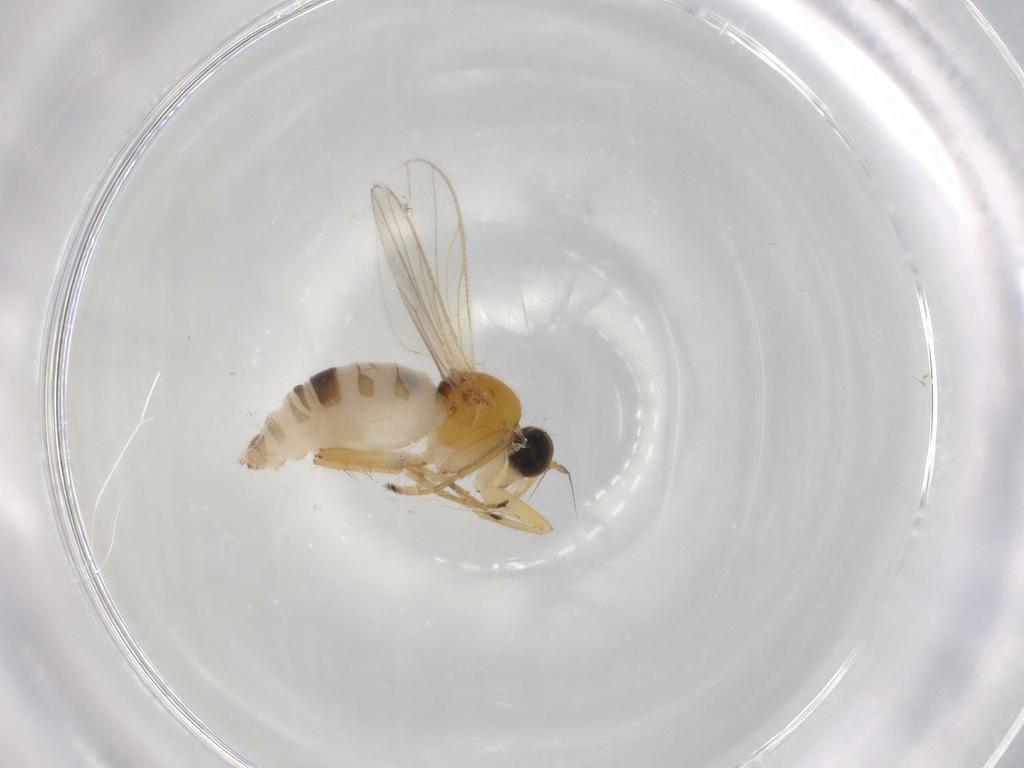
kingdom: Animalia
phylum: Arthropoda
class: Insecta
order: Diptera
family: Hybotidae
